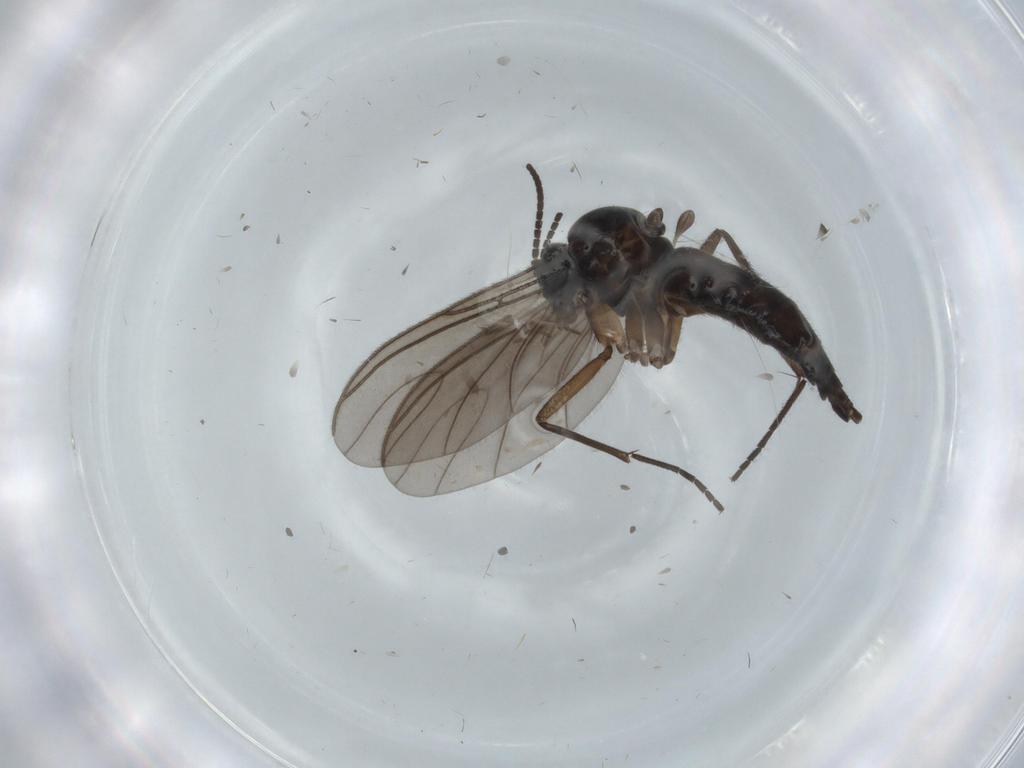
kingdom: Animalia
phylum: Arthropoda
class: Insecta
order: Diptera
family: Sciaridae
